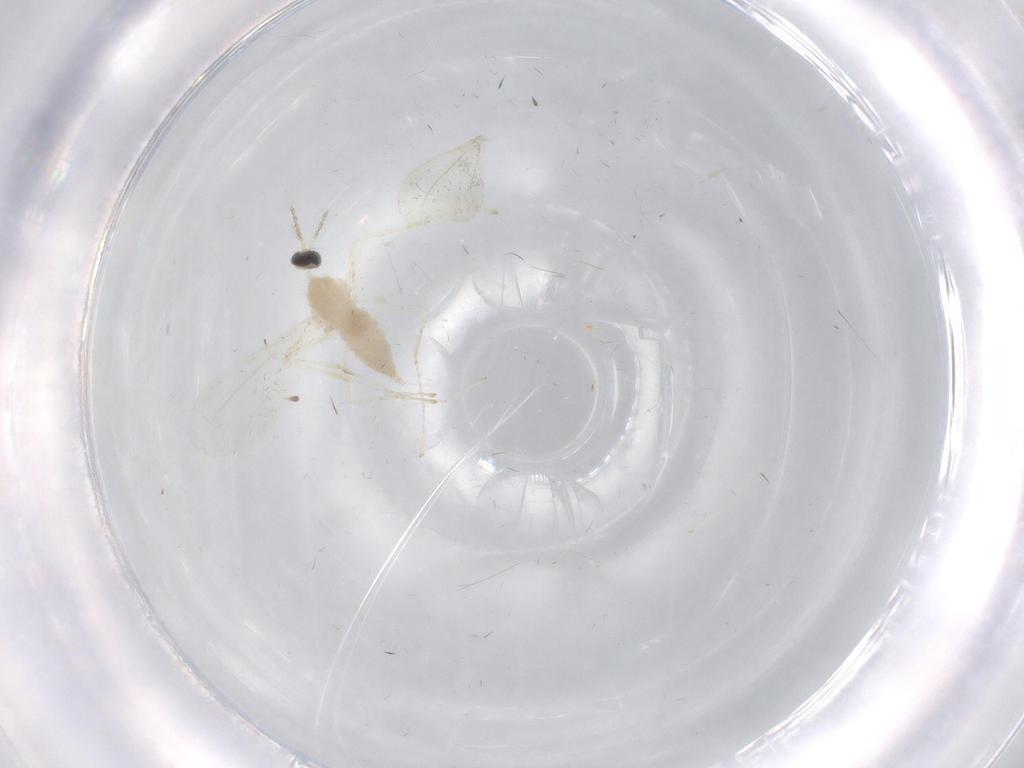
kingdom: Animalia
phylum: Arthropoda
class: Insecta
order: Diptera
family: Cecidomyiidae
